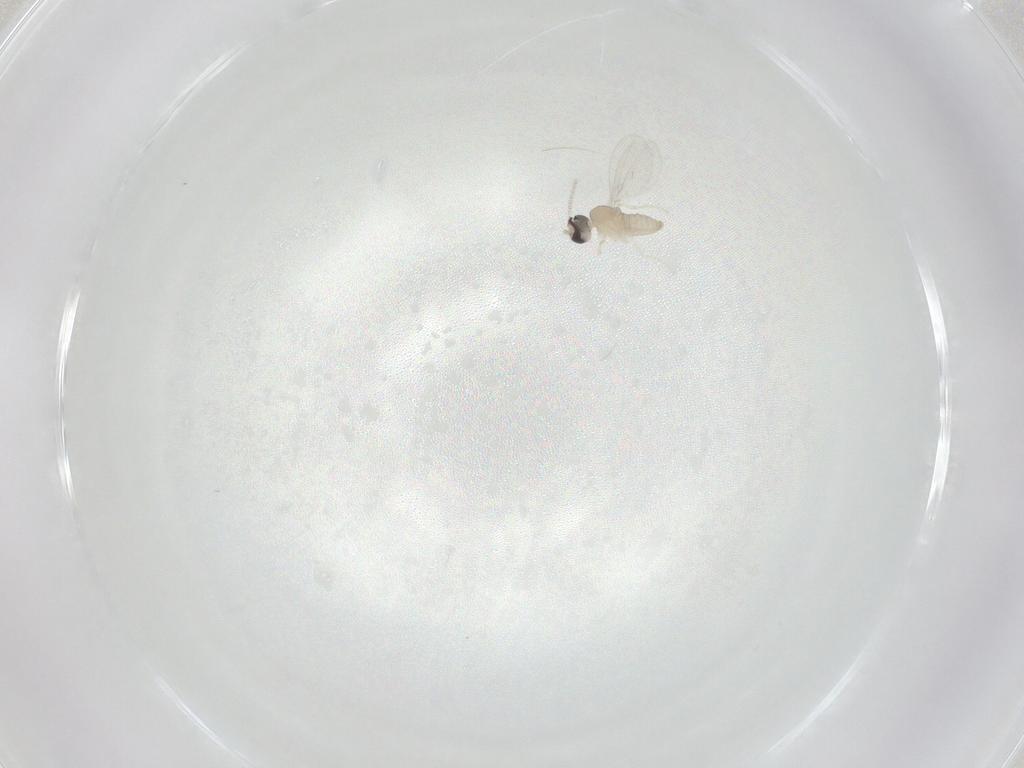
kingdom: Animalia
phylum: Arthropoda
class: Insecta
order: Diptera
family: Cecidomyiidae
